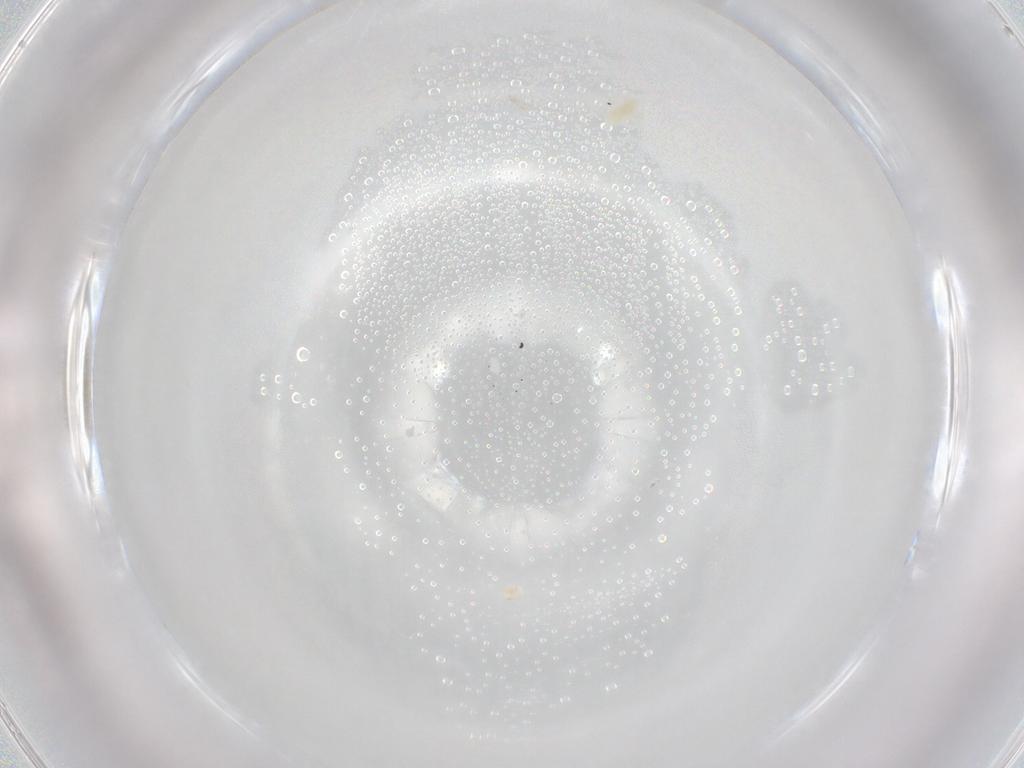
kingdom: Animalia
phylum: Arthropoda
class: Insecta
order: Diptera
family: Chironomidae
